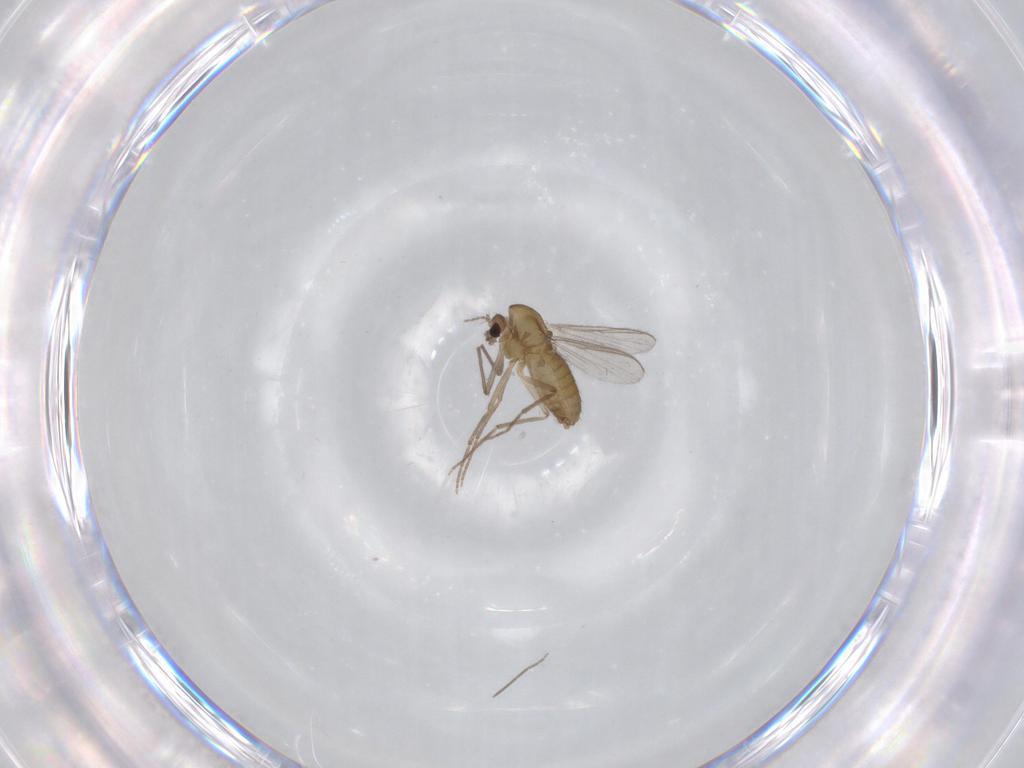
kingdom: Animalia
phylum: Arthropoda
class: Insecta
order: Diptera
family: Chironomidae
